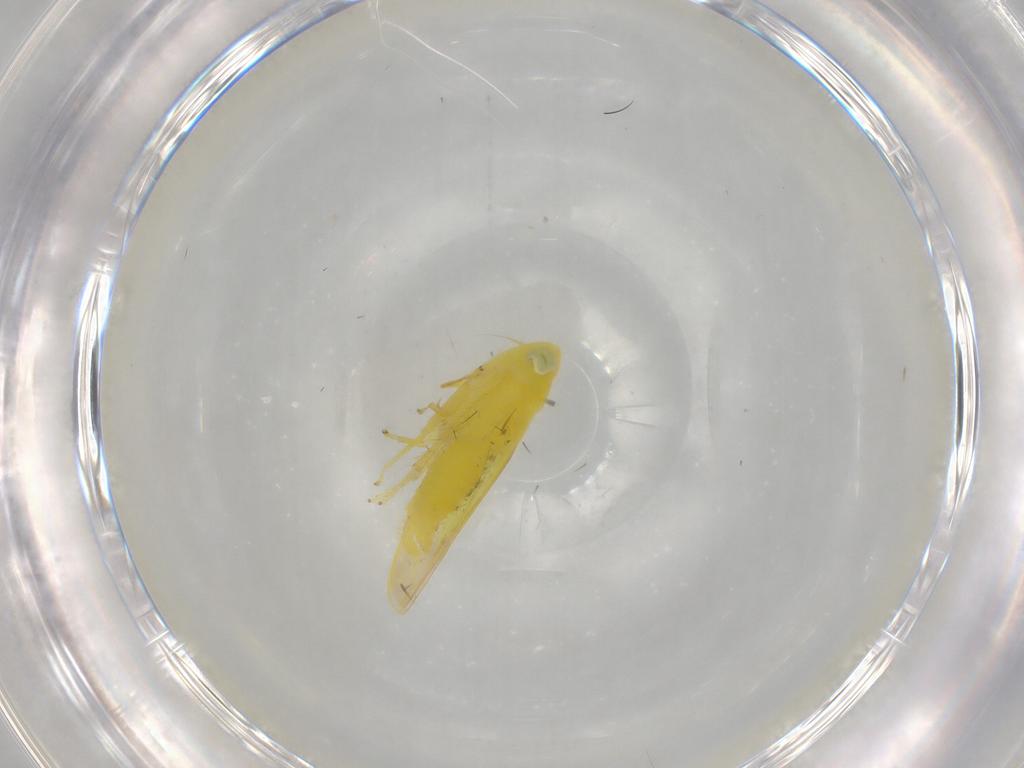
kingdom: Animalia
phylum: Arthropoda
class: Insecta
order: Hemiptera
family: Cicadellidae
